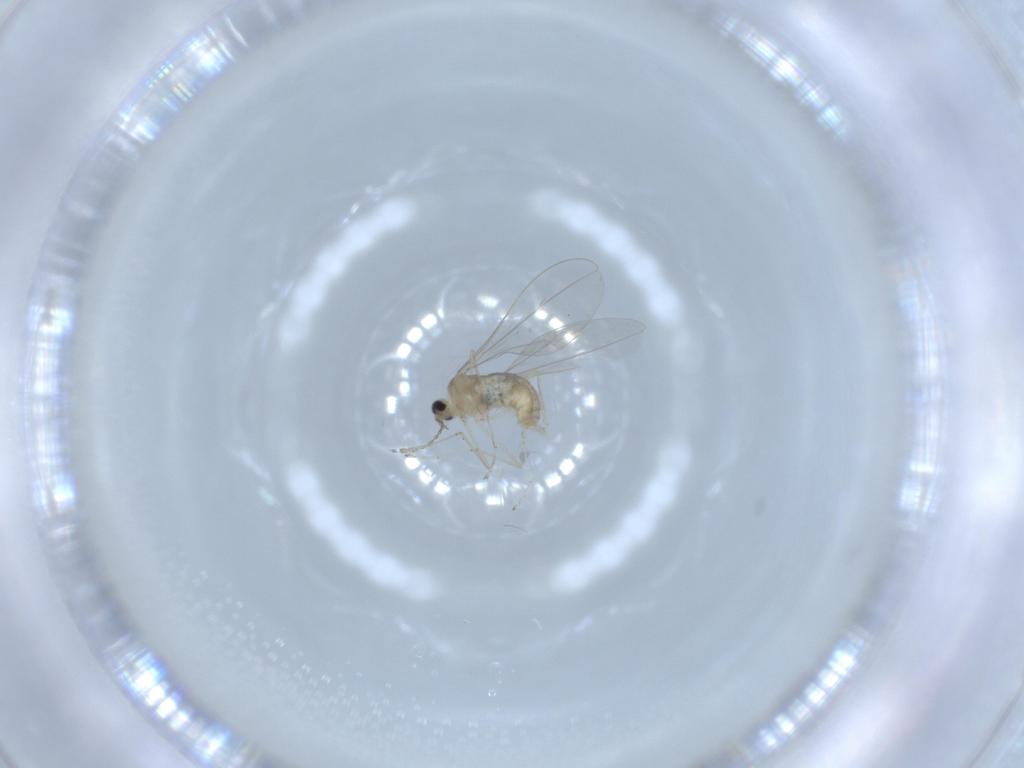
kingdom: Animalia
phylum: Arthropoda
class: Insecta
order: Diptera
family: Cecidomyiidae
